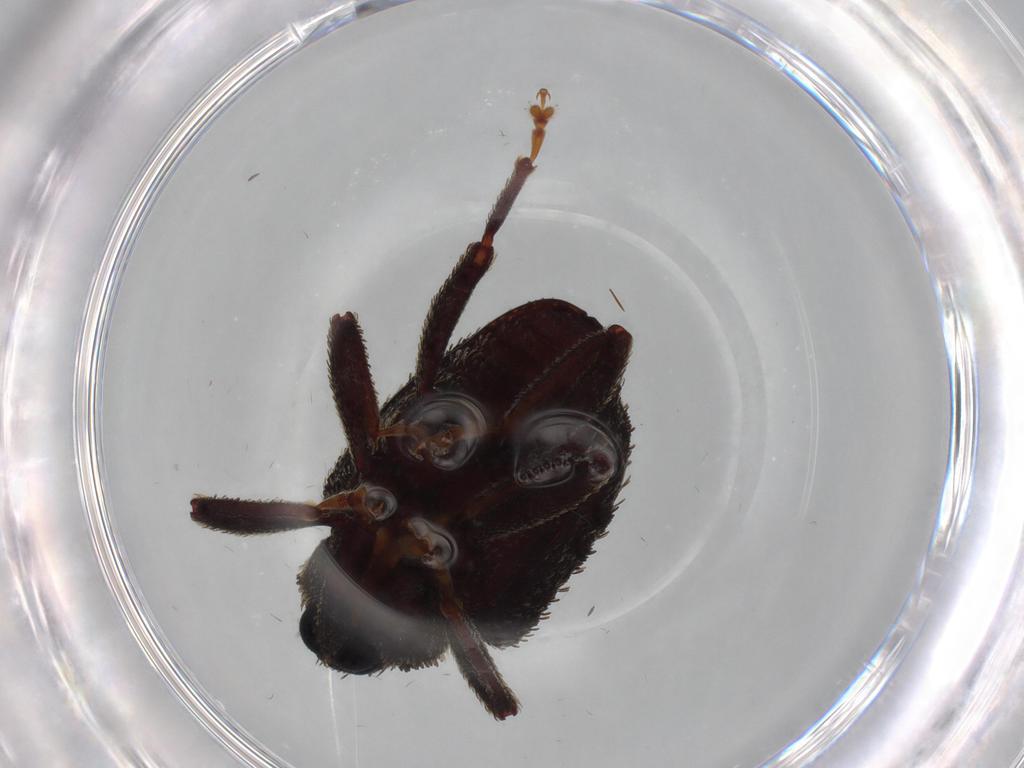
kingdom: Animalia
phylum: Arthropoda
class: Insecta
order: Coleoptera
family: Curculionidae
